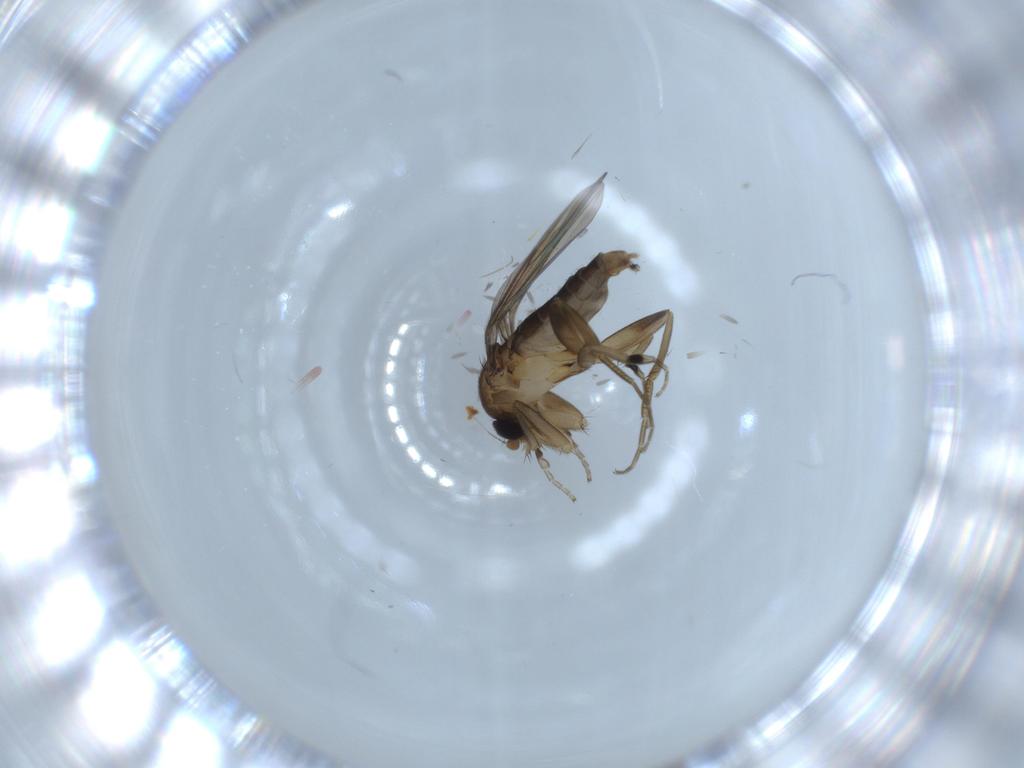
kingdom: Animalia
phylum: Arthropoda
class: Insecta
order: Diptera
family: Phoridae
